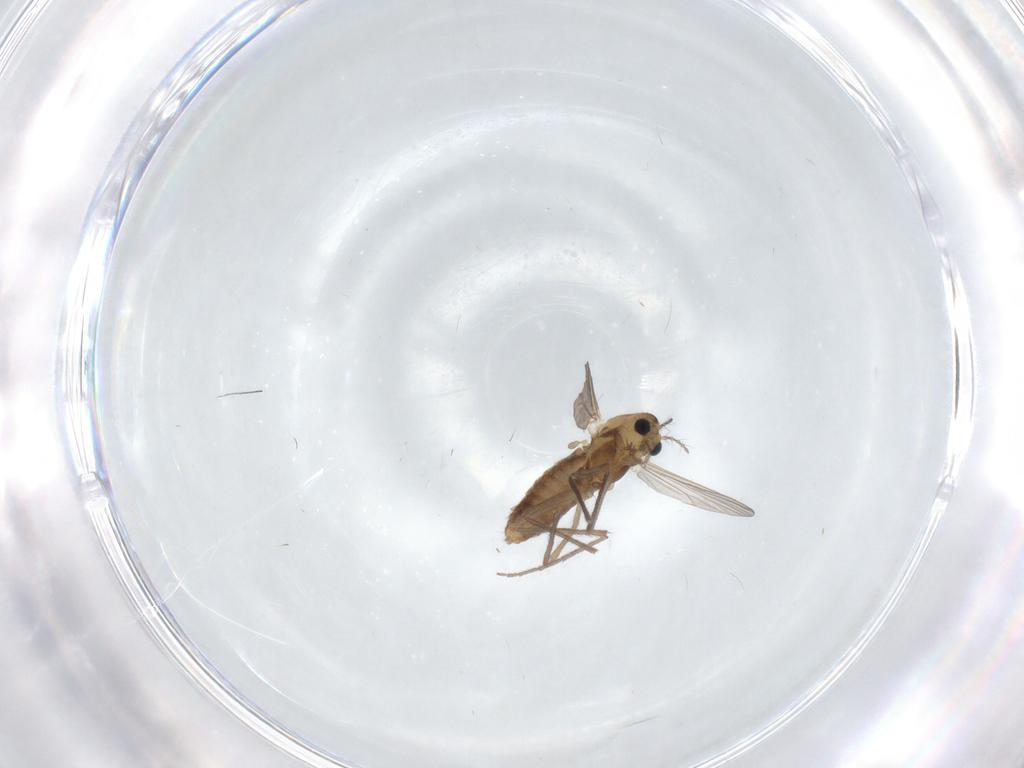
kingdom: Animalia
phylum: Arthropoda
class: Insecta
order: Diptera
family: Chironomidae
